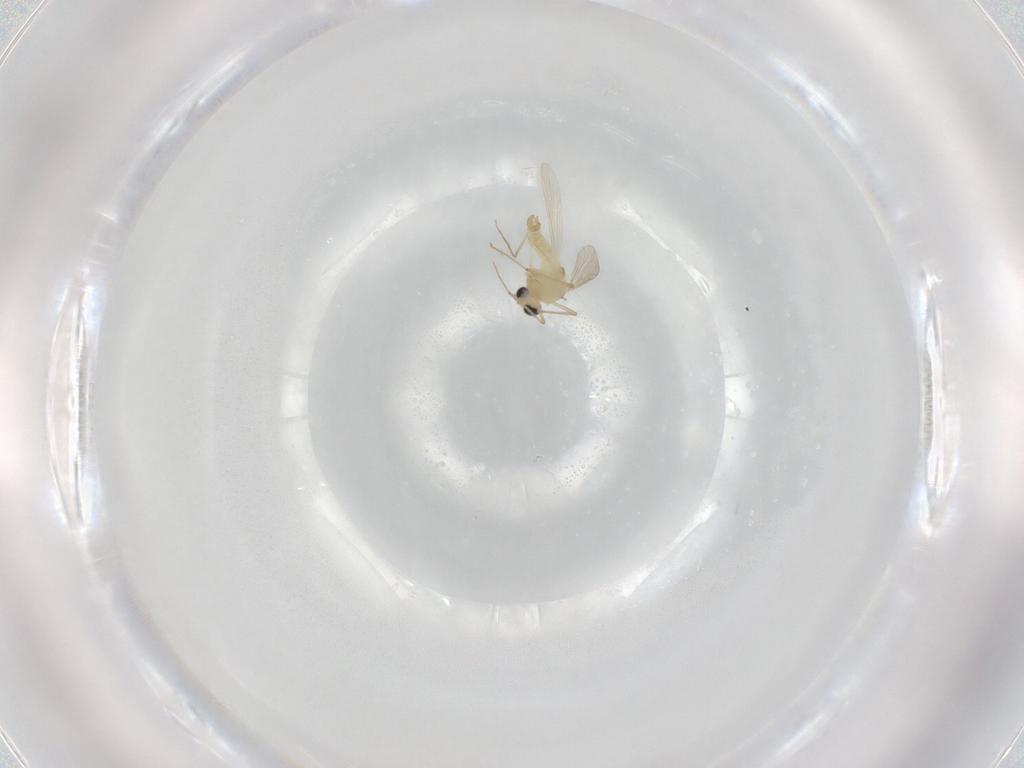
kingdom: Animalia
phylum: Arthropoda
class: Insecta
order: Diptera
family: Chironomidae
